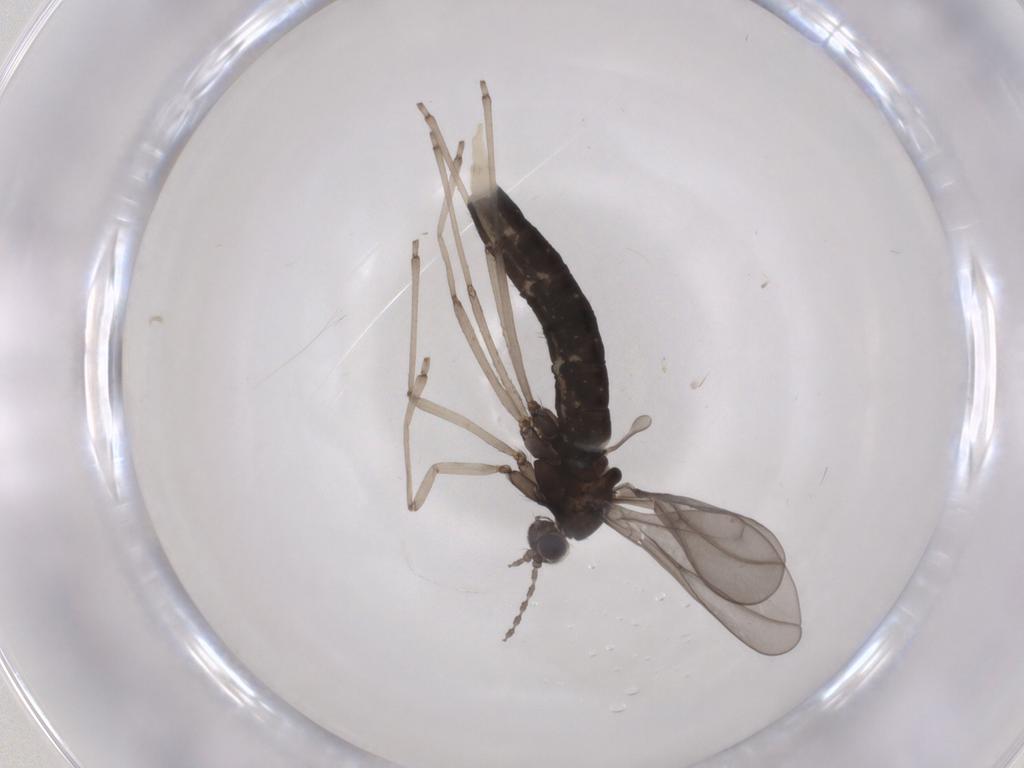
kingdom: Animalia
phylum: Arthropoda
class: Insecta
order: Diptera
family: Cecidomyiidae
